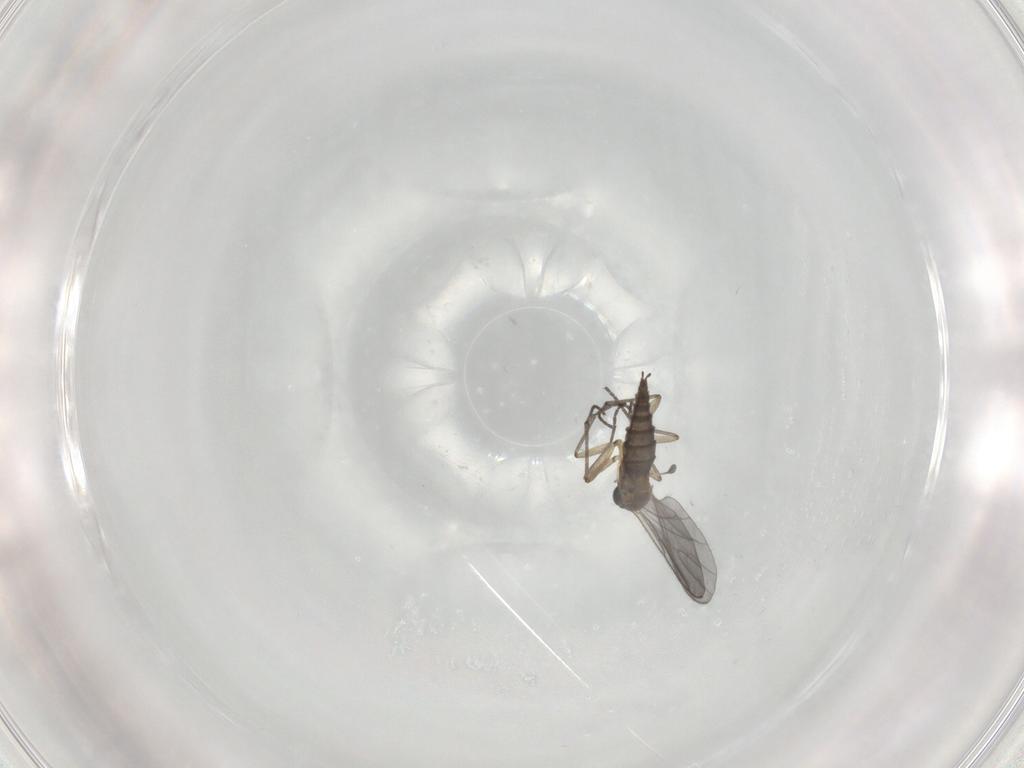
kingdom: Animalia
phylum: Arthropoda
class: Insecta
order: Diptera
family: Sciaridae
